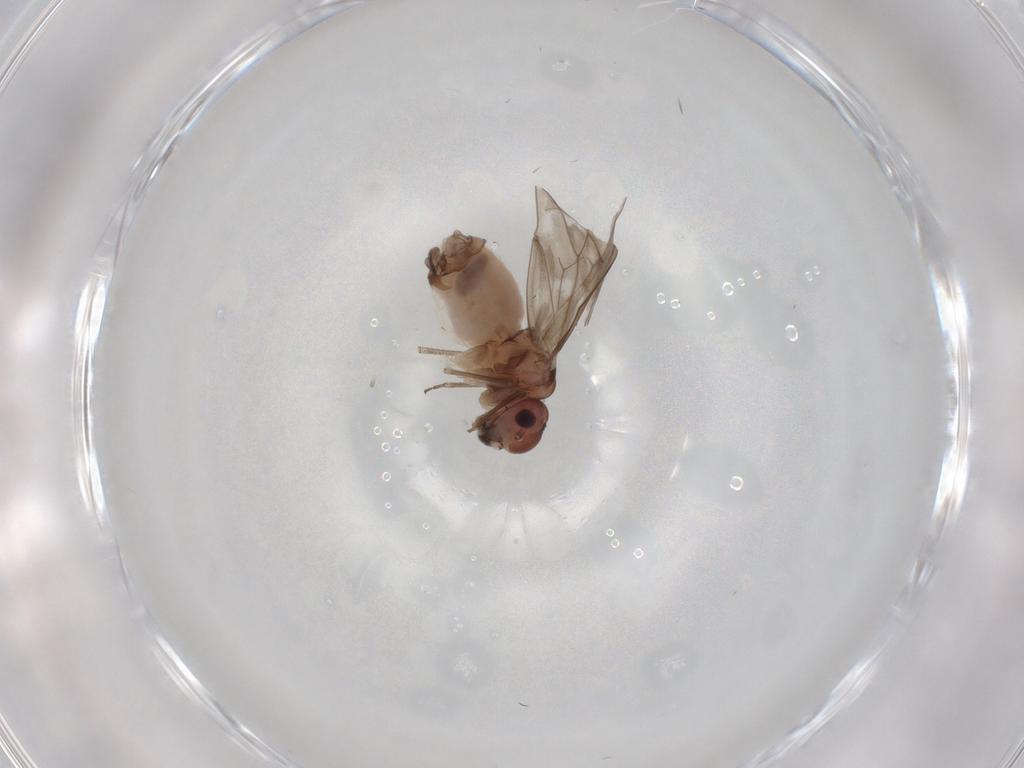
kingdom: Animalia
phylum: Arthropoda
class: Insecta
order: Psocodea
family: Peripsocidae
